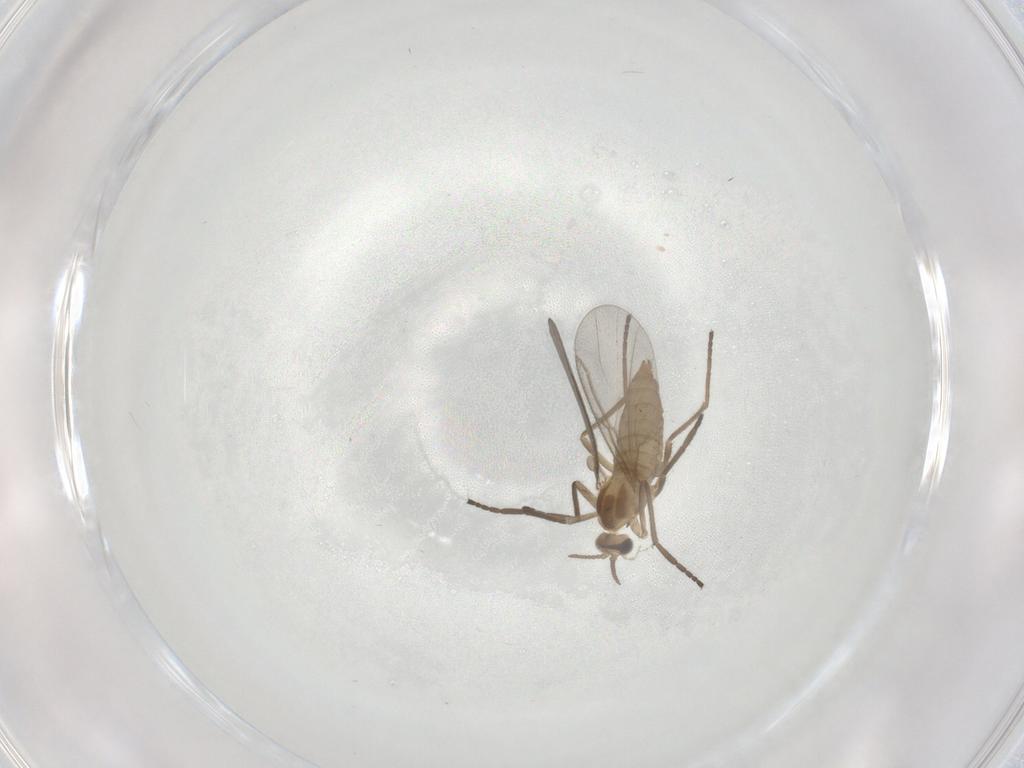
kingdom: Animalia
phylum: Arthropoda
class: Insecta
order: Diptera
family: Cecidomyiidae
